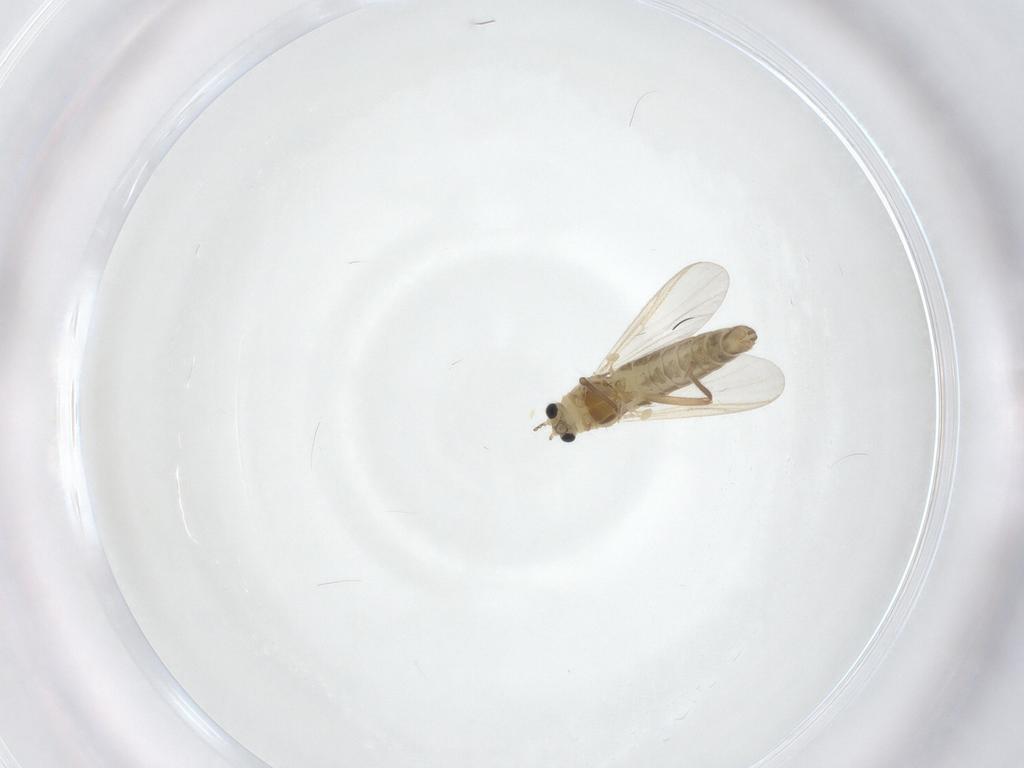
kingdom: Animalia
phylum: Arthropoda
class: Insecta
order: Diptera
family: Chironomidae
